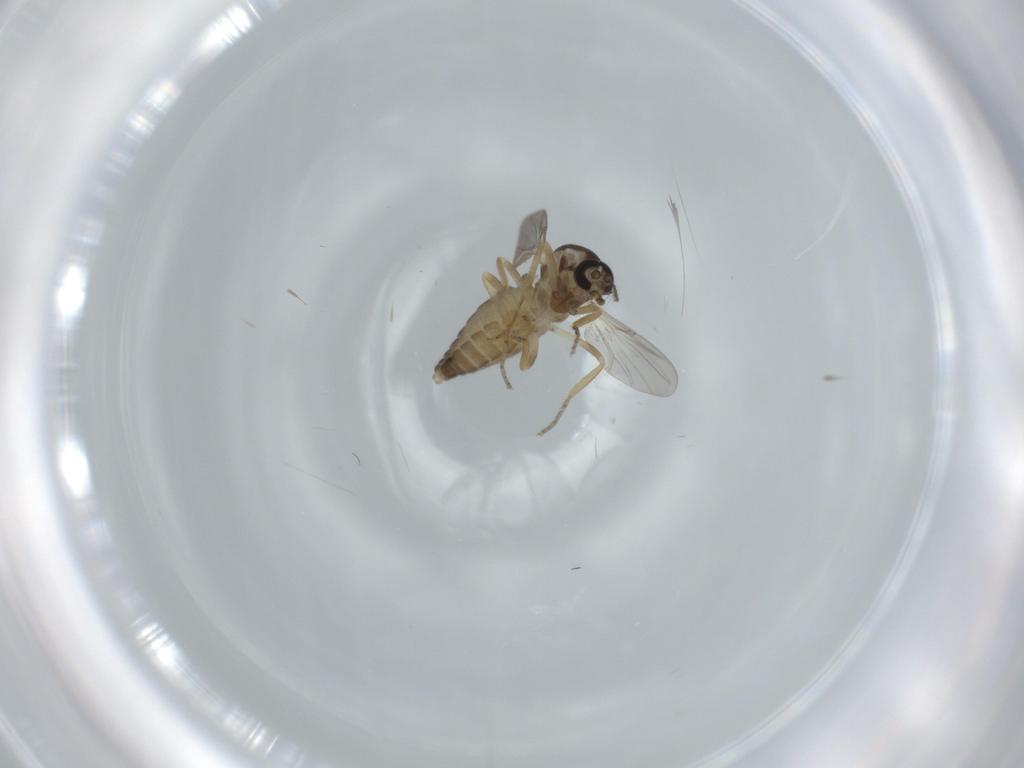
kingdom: Animalia
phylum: Arthropoda
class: Insecta
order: Diptera
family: Ceratopogonidae
